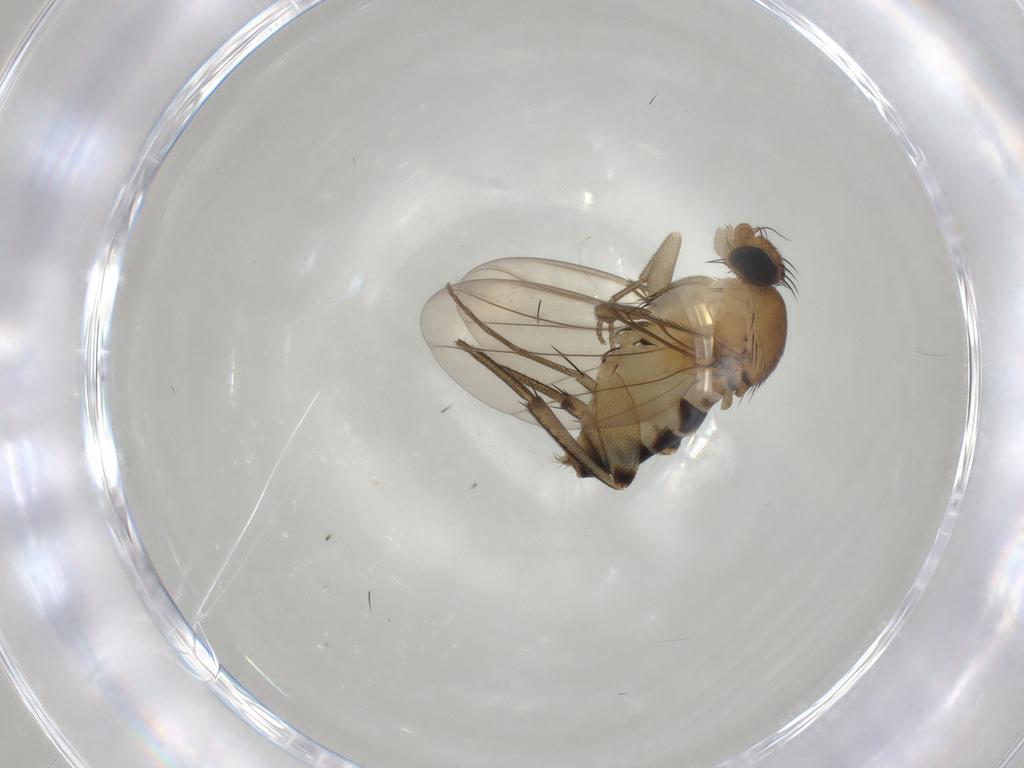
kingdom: Animalia
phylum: Arthropoda
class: Insecta
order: Diptera
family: Phoridae
